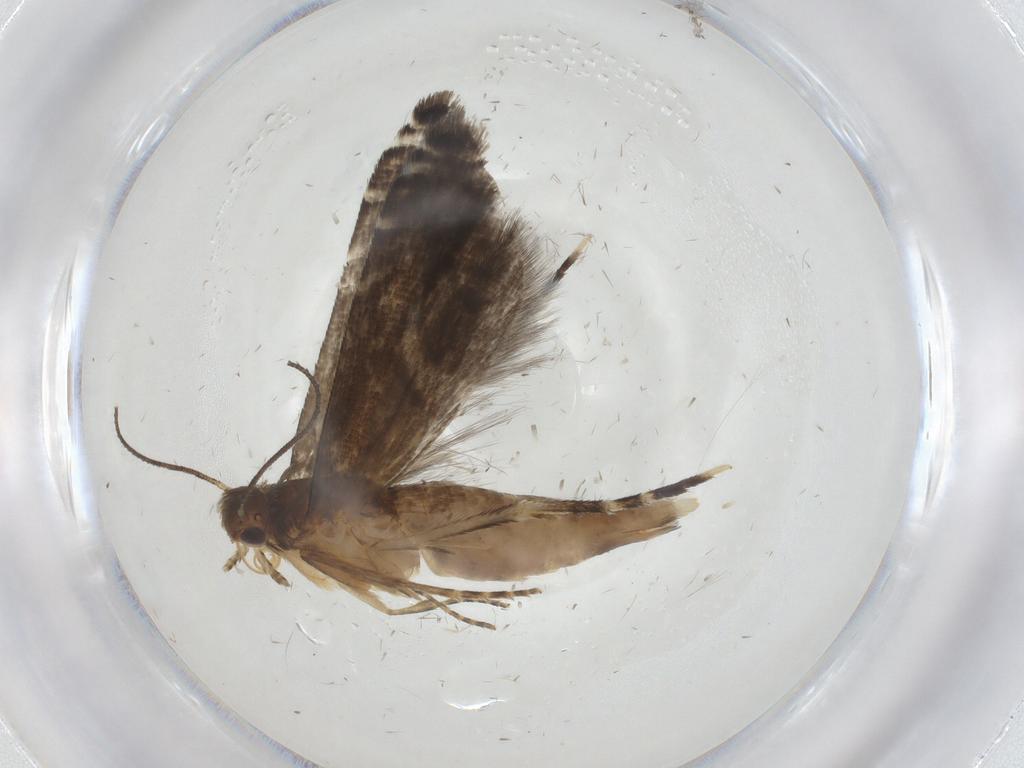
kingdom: Animalia
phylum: Arthropoda
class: Insecta
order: Lepidoptera
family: Glyphipterigidae
